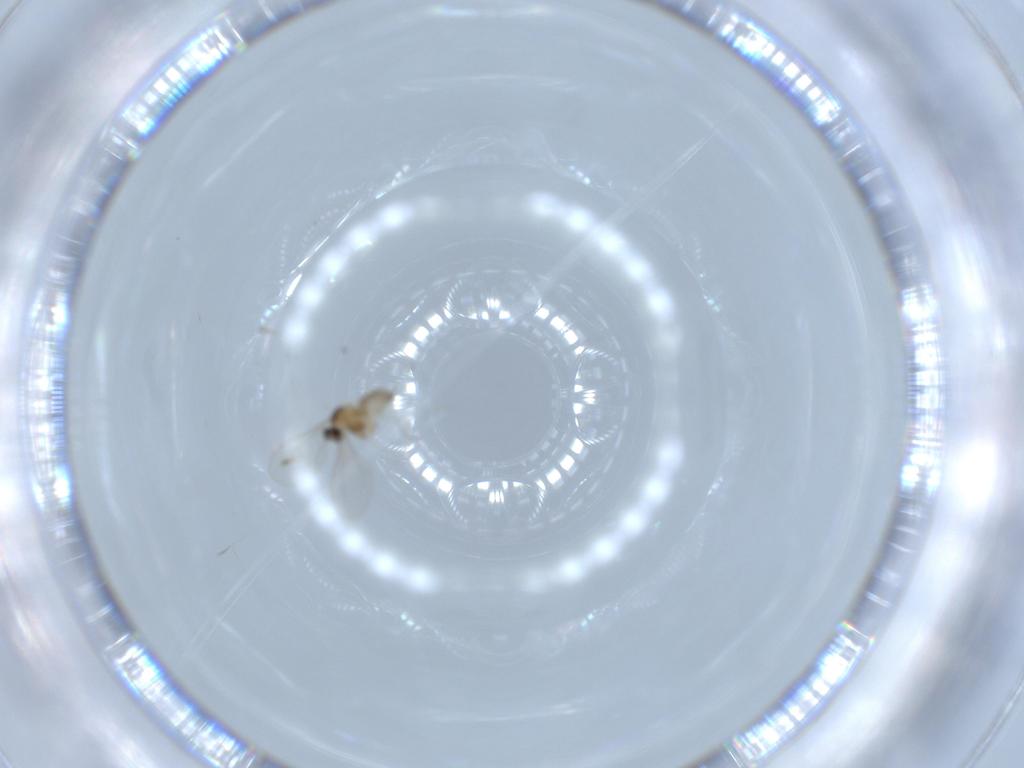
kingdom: Animalia
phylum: Arthropoda
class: Insecta
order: Diptera
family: Cecidomyiidae
